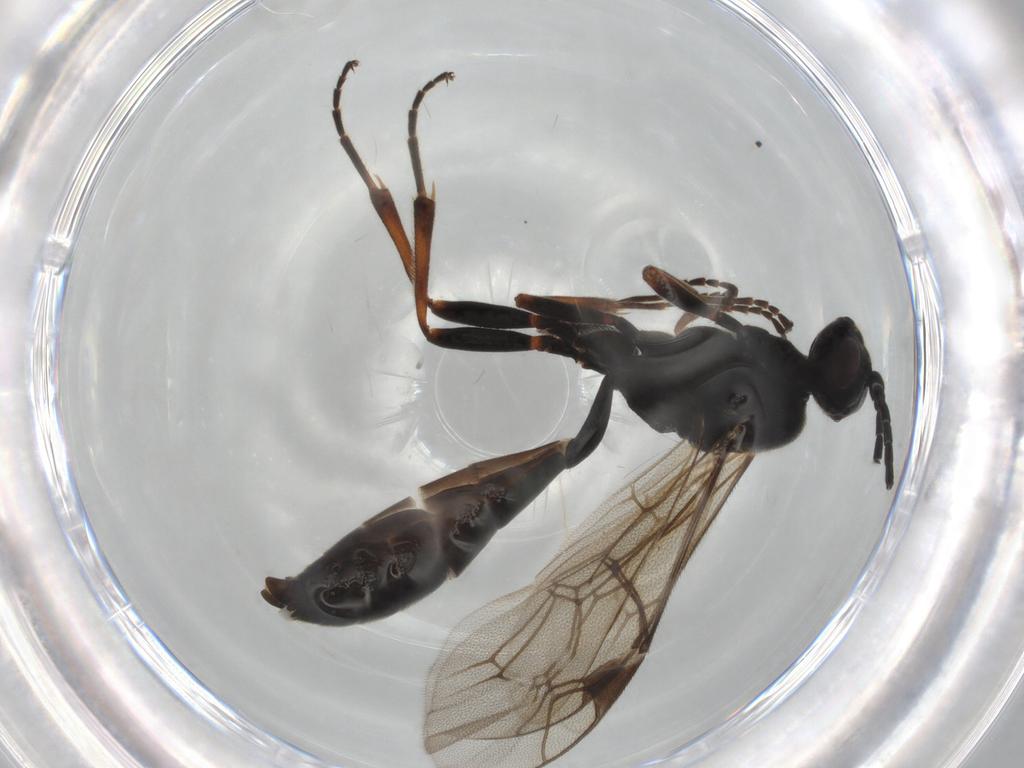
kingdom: Animalia
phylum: Arthropoda
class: Insecta
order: Hymenoptera
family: Ichneumonidae
